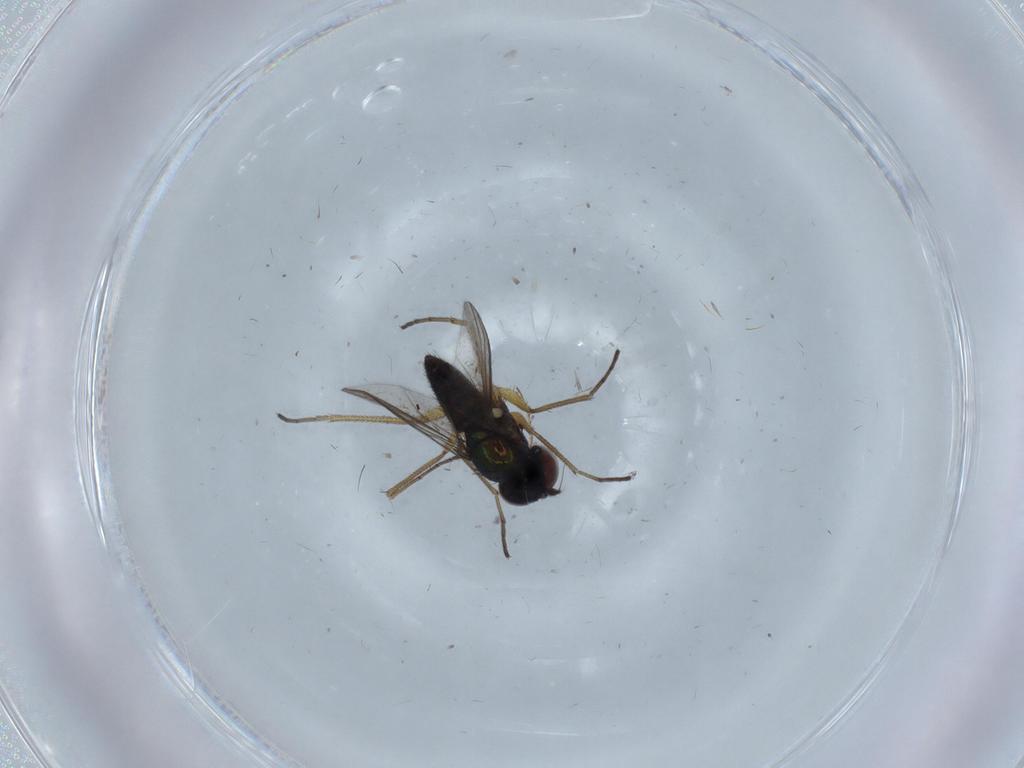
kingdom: Animalia
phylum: Arthropoda
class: Insecta
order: Diptera
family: Dolichopodidae
